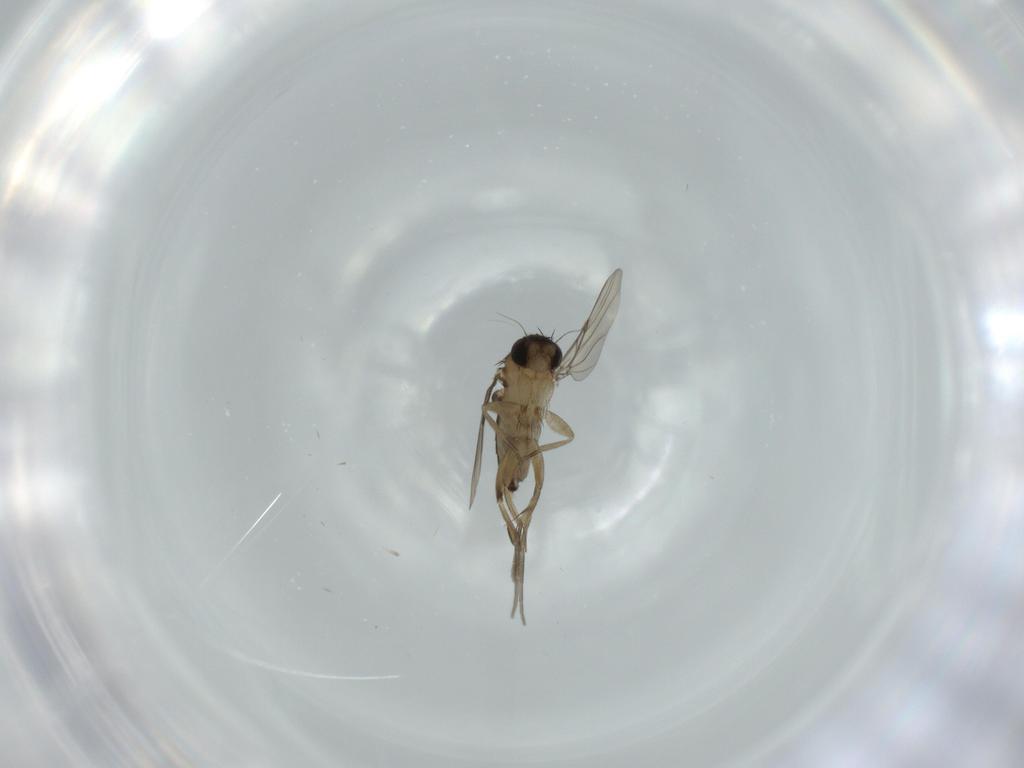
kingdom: Animalia
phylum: Arthropoda
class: Insecta
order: Diptera
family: Phoridae
